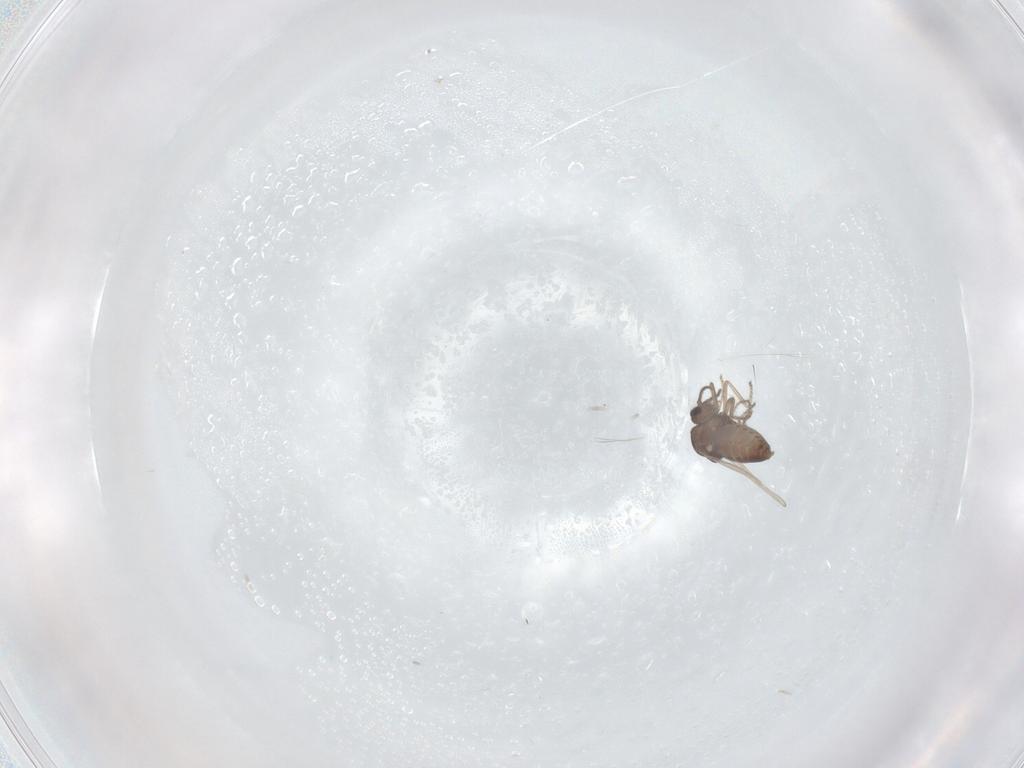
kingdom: Animalia
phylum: Arthropoda
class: Insecta
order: Diptera
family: Ceratopogonidae
